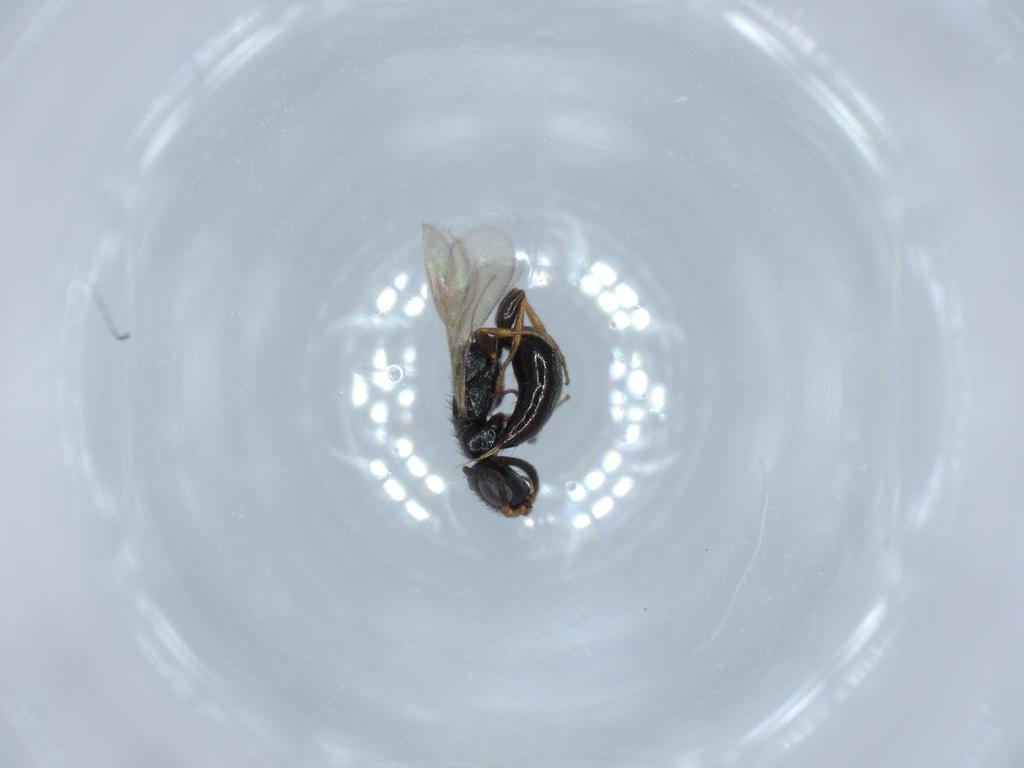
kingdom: Animalia
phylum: Arthropoda
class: Insecta
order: Hymenoptera
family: Bethylidae
